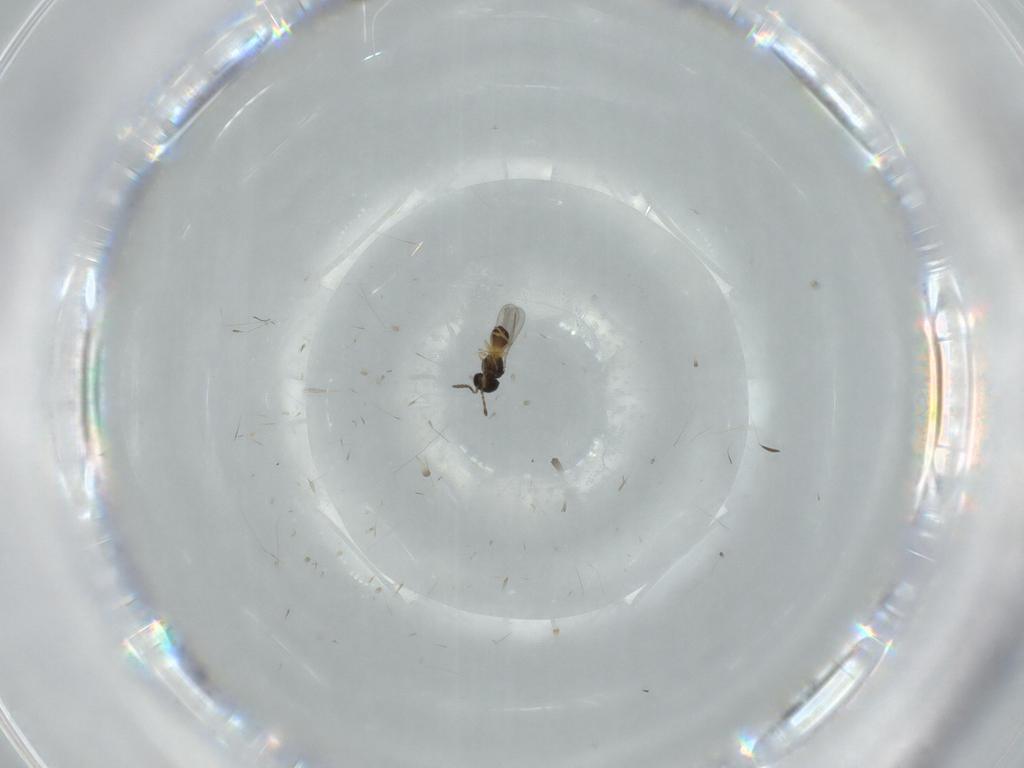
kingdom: Animalia
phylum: Arthropoda
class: Insecta
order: Hymenoptera
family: Scelionidae
